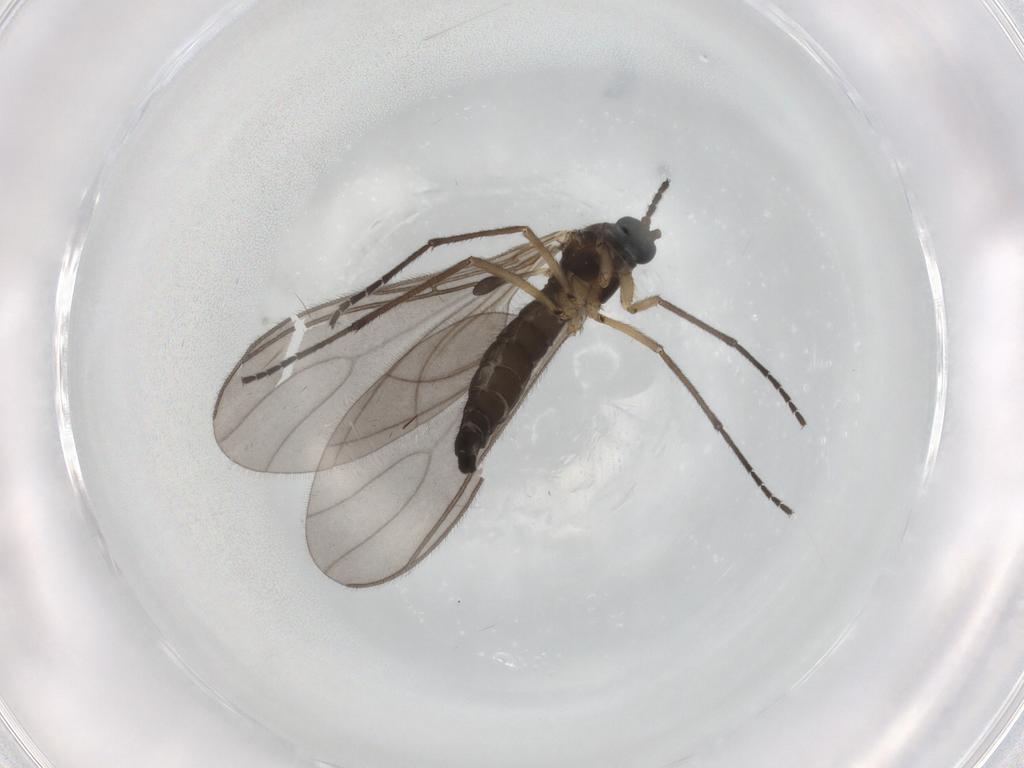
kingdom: Animalia
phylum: Arthropoda
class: Insecta
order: Diptera
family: Sciaridae
